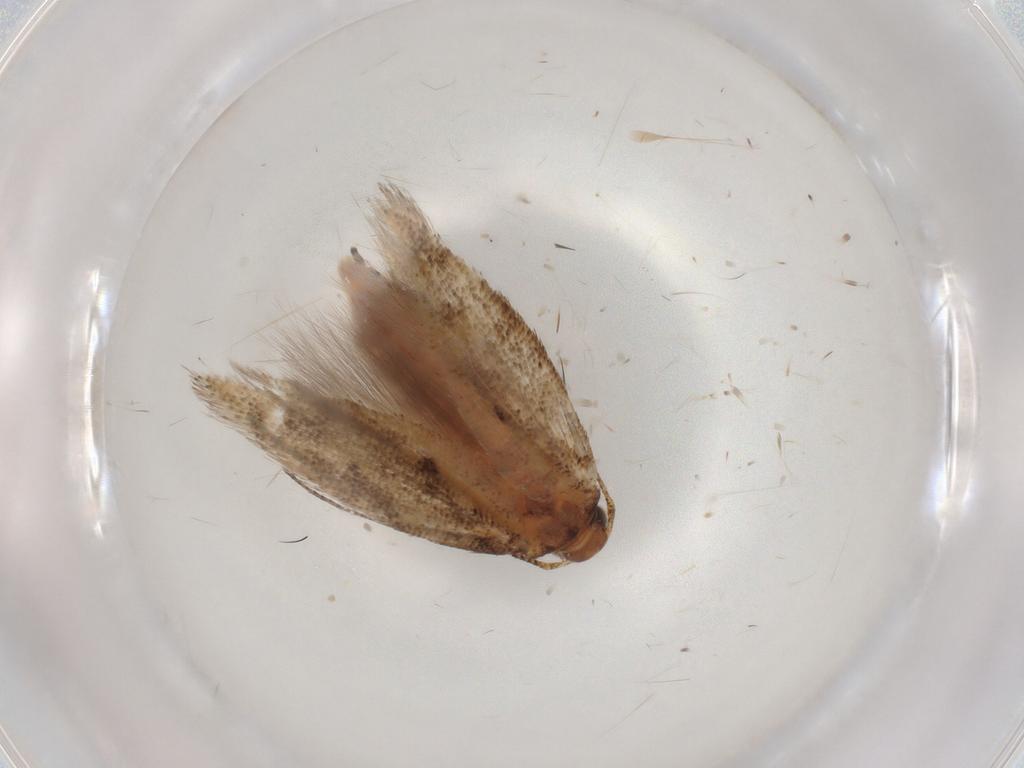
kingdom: Animalia
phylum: Arthropoda
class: Insecta
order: Lepidoptera
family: Gelechiidae
